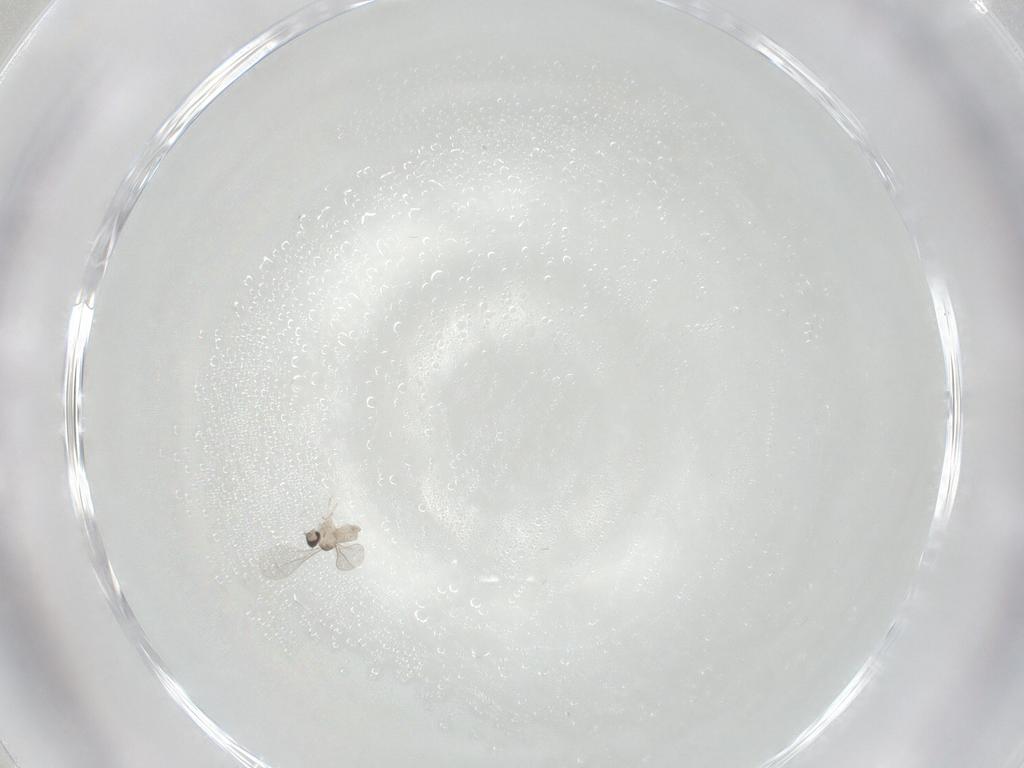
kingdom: Animalia
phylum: Arthropoda
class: Insecta
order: Diptera
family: Cecidomyiidae
